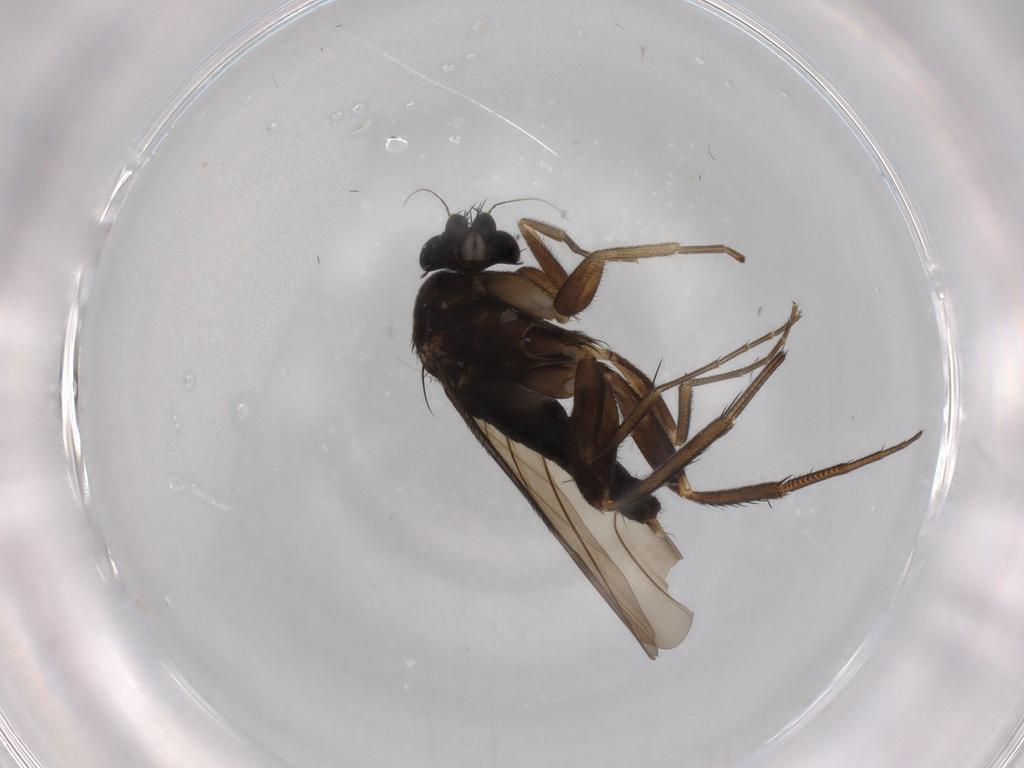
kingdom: Animalia
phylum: Arthropoda
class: Insecta
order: Diptera
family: Phoridae
